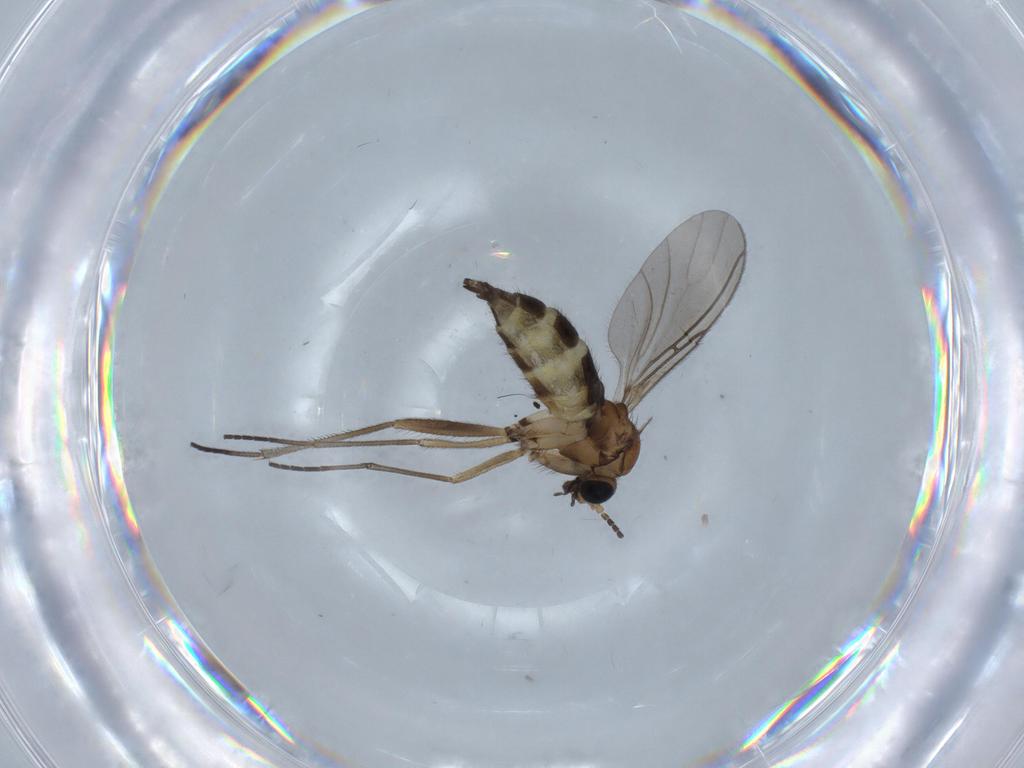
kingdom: Animalia
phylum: Arthropoda
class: Insecta
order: Diptera
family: Sciaridae
